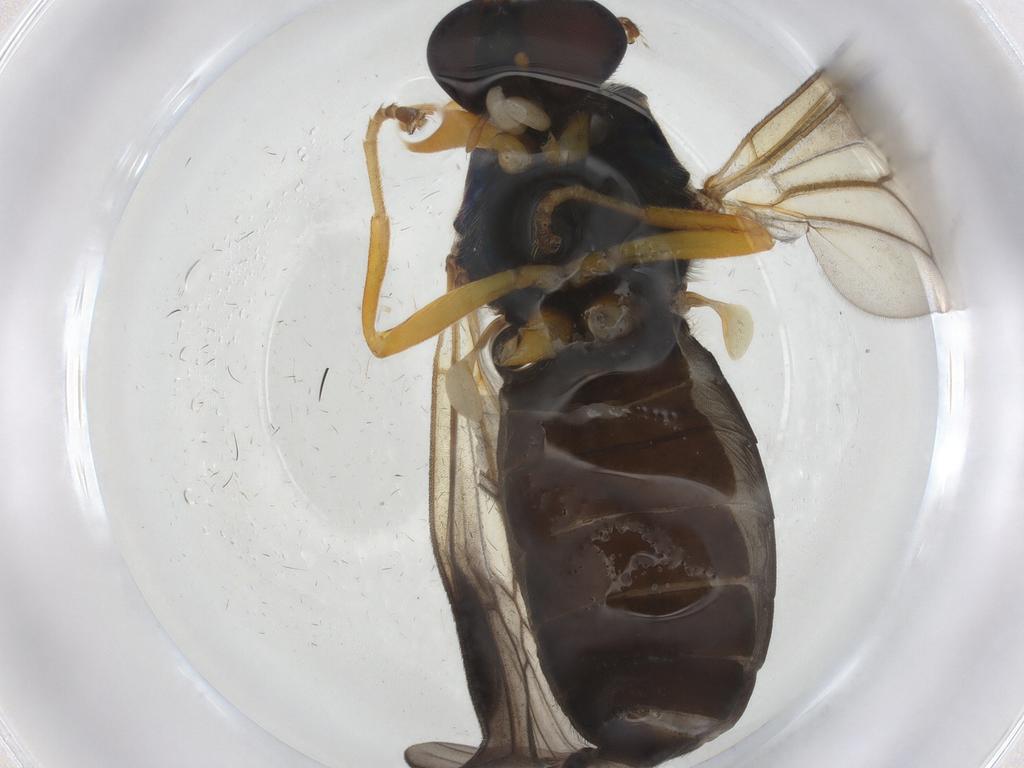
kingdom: Animalia
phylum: Arthropoda
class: Insecta
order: Diptera
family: Stratiomyidae
